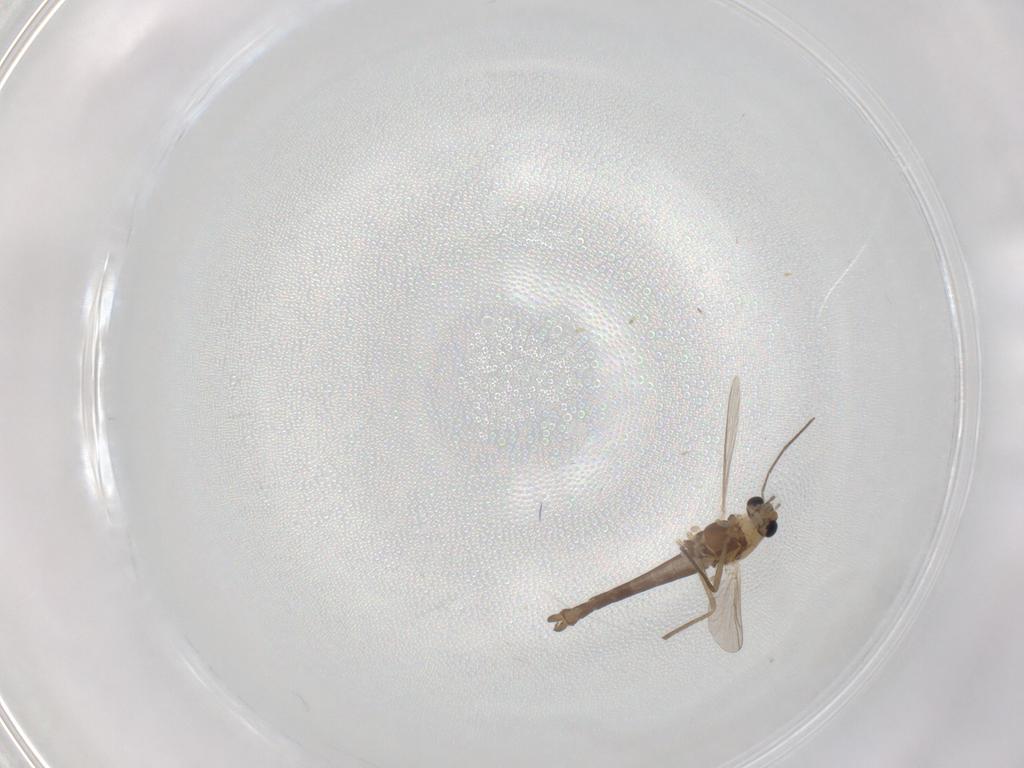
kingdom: Animalia
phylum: Arthropoda
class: Insecta
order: Diptera
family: Chironomidae
